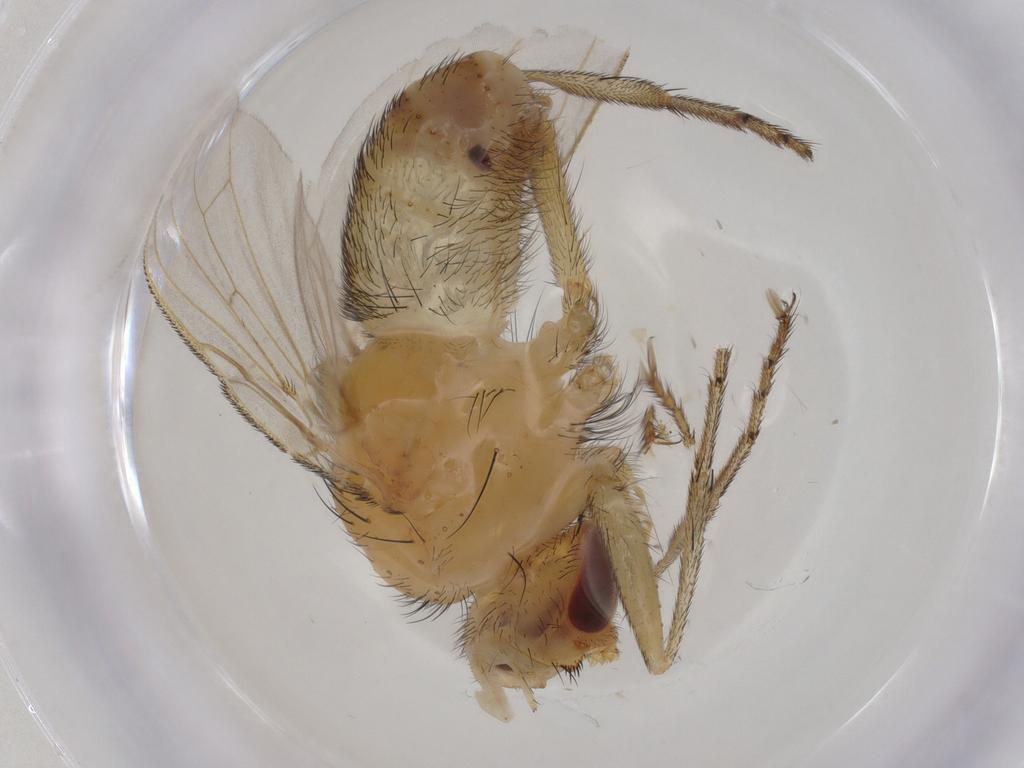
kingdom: Animalia
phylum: Arthropoda
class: Insecta
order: Diptera
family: Tachinidae
